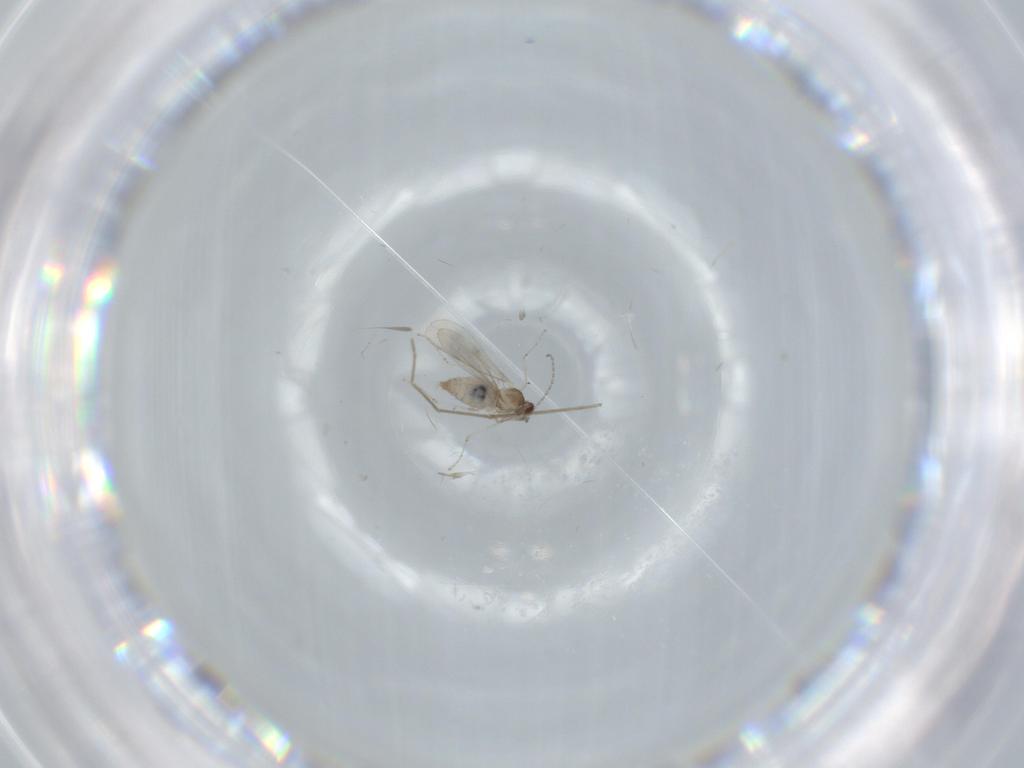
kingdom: Animalia
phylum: Arthropoda
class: Insecta
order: Diptera
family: Cecidomyiidae
